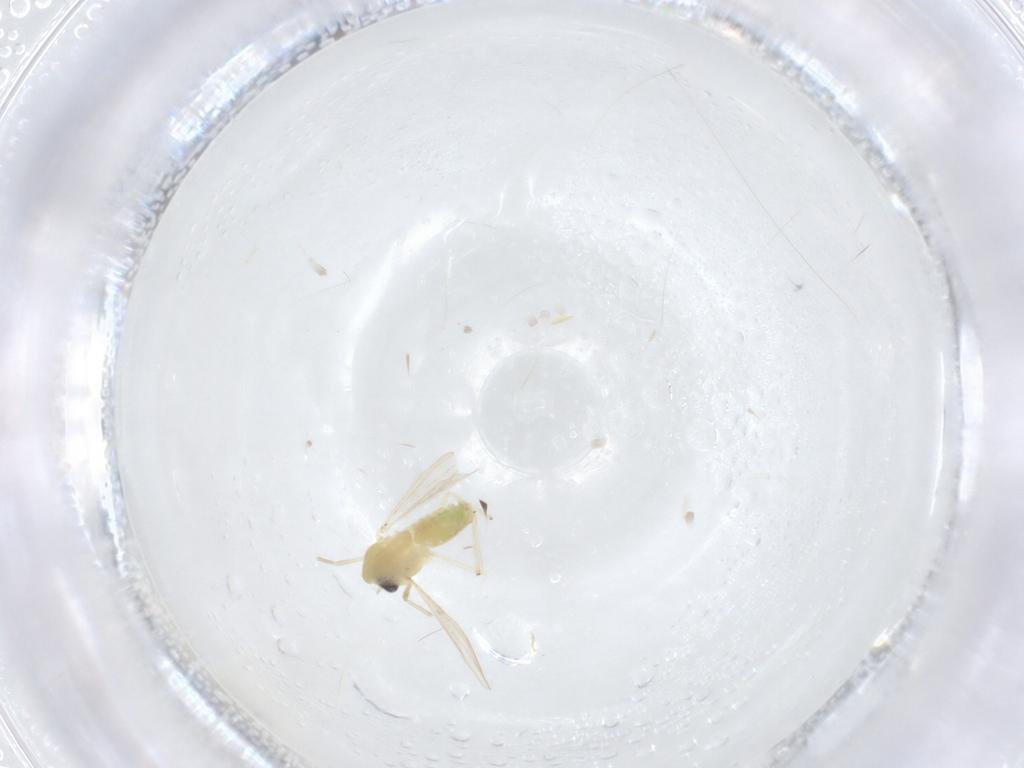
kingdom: Animalia
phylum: Arthropoda
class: Insecta
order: Diptera
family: Chironomidae
